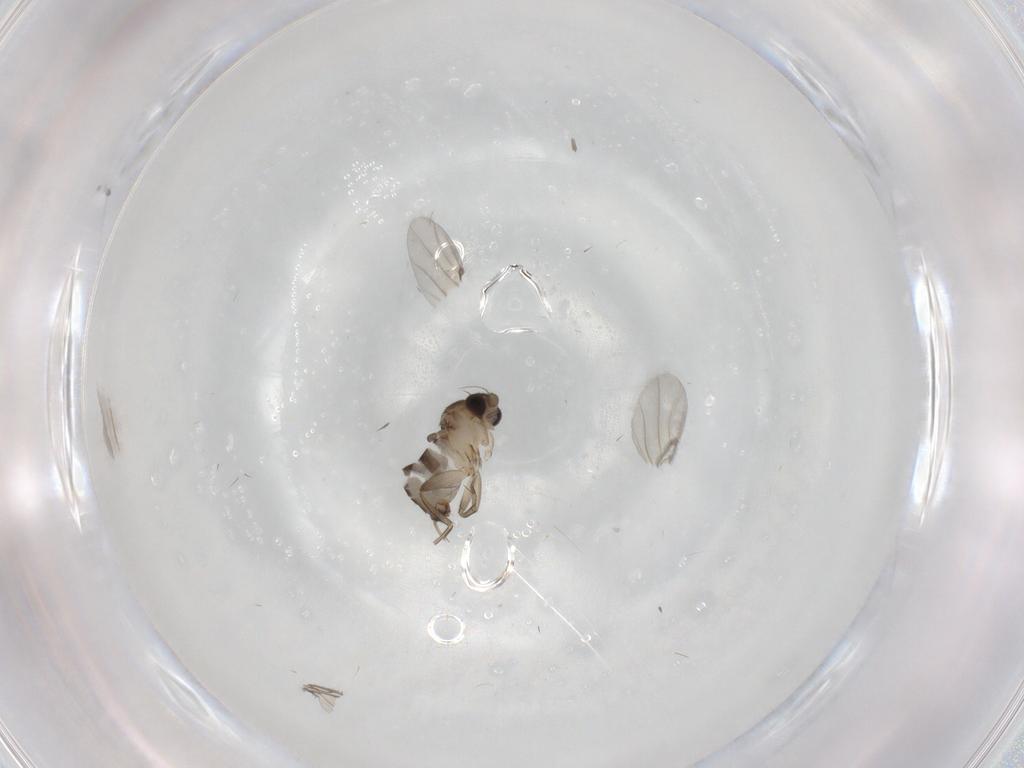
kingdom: Animalia
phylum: Arthropoda
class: Insecta
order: Diptera
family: Phoridae
